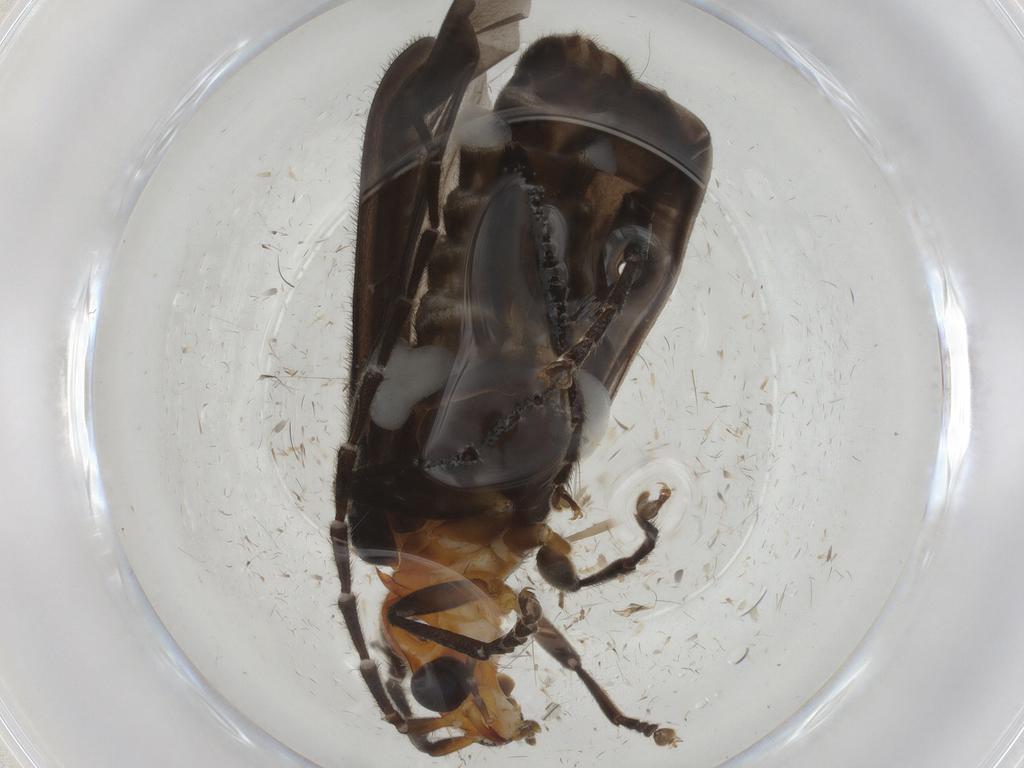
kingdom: Animalia
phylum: Arthropoda
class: Insecta
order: Coleoptera
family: Cantharidae
